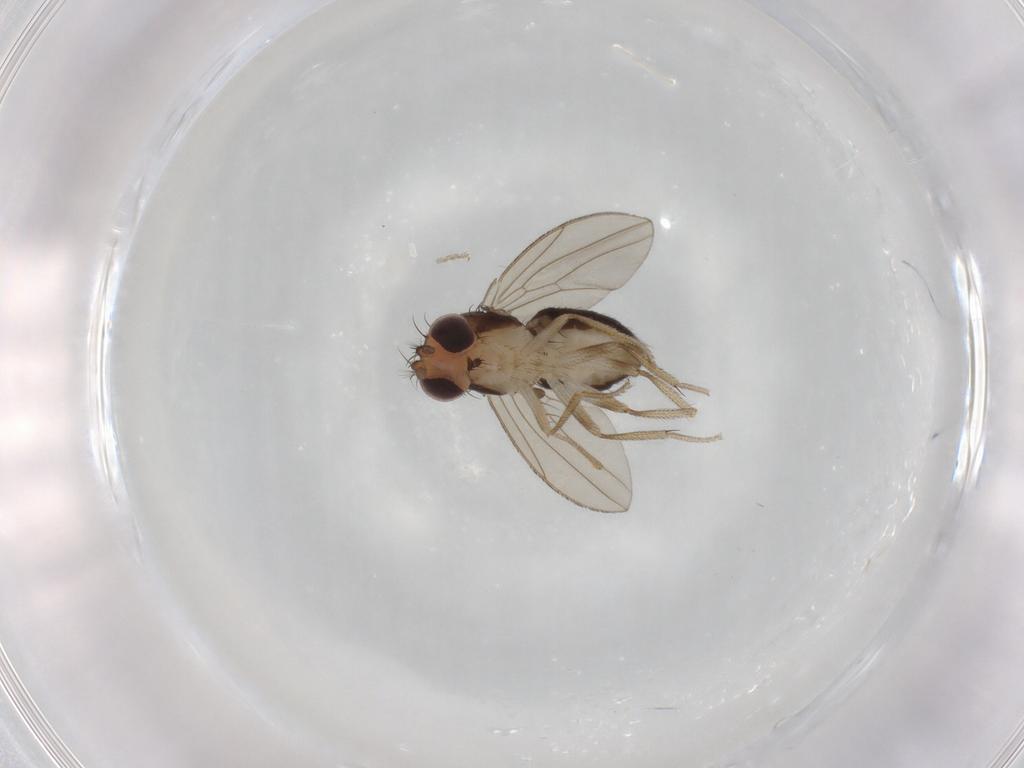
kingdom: Animalia
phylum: Arthropoda
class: Insecta
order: Diptera
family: Drosophilidae
